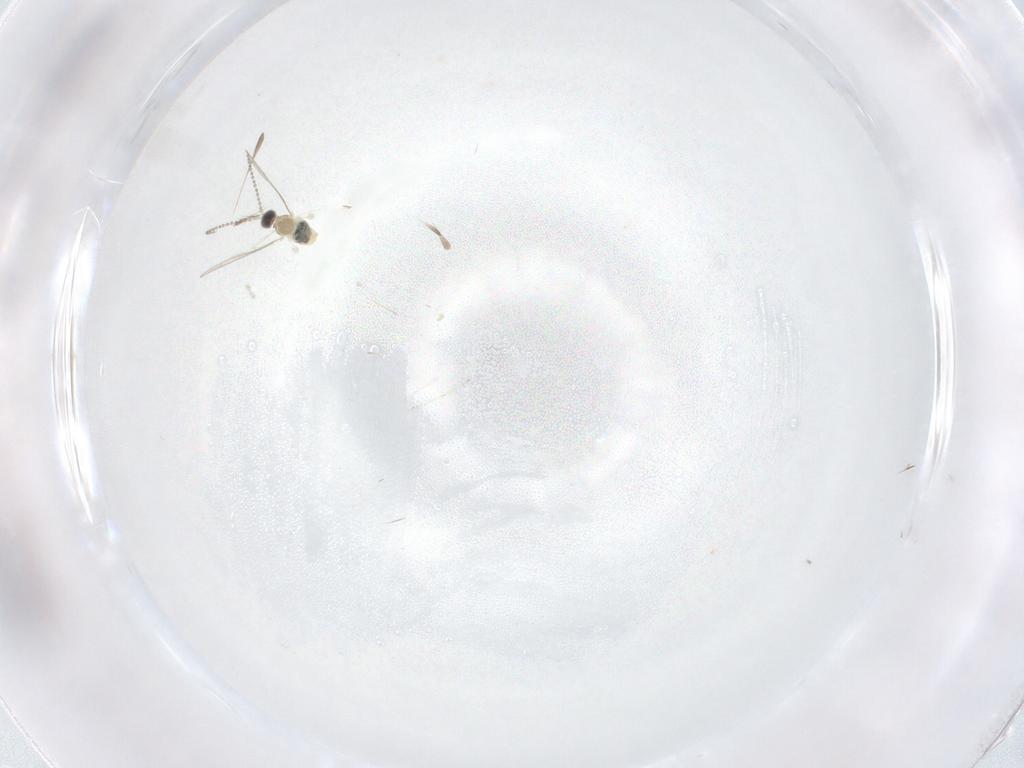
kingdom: Animalia
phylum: Arthropoda
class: Insecta
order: Diptera
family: Cecidomyiidae
